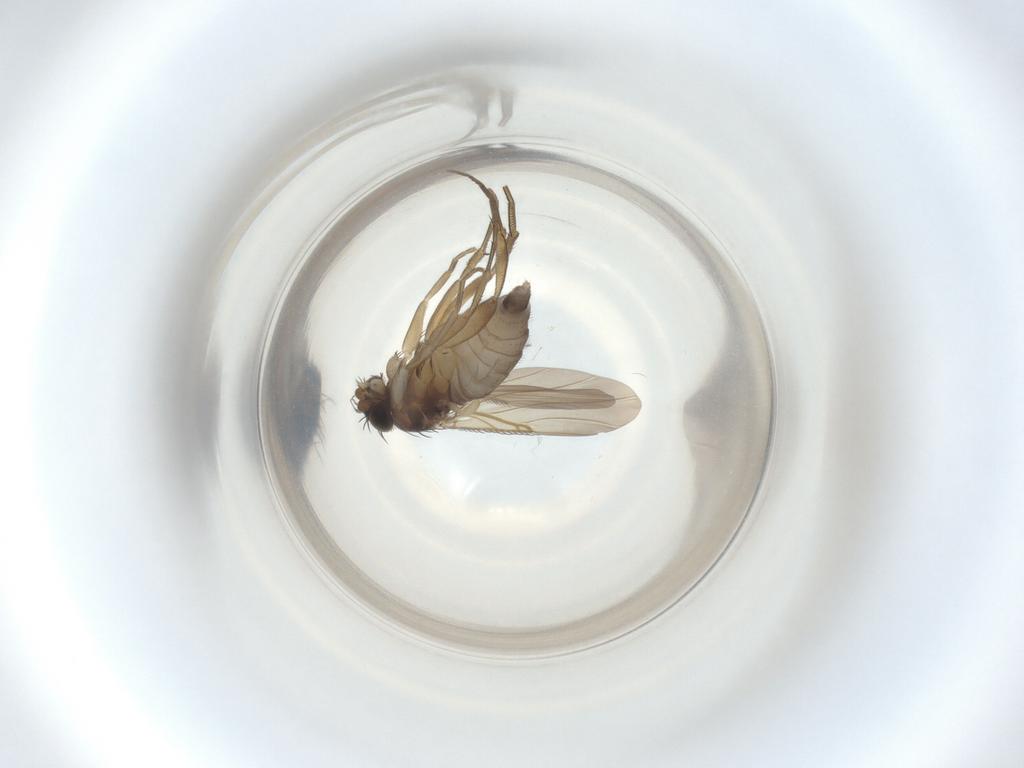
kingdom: Animalia
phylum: Arthropoda
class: Insecta
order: Diptera
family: Phoridae
